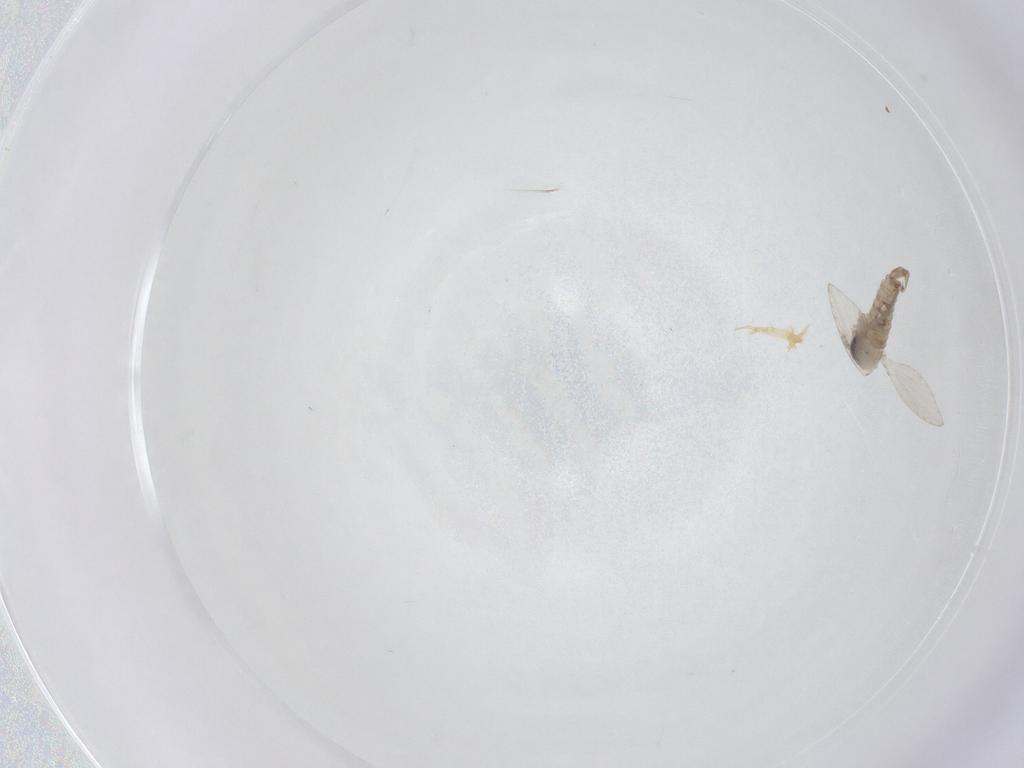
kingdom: Animalia
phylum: Arthropoda
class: Insecta
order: Diptera
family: Psychodidae
